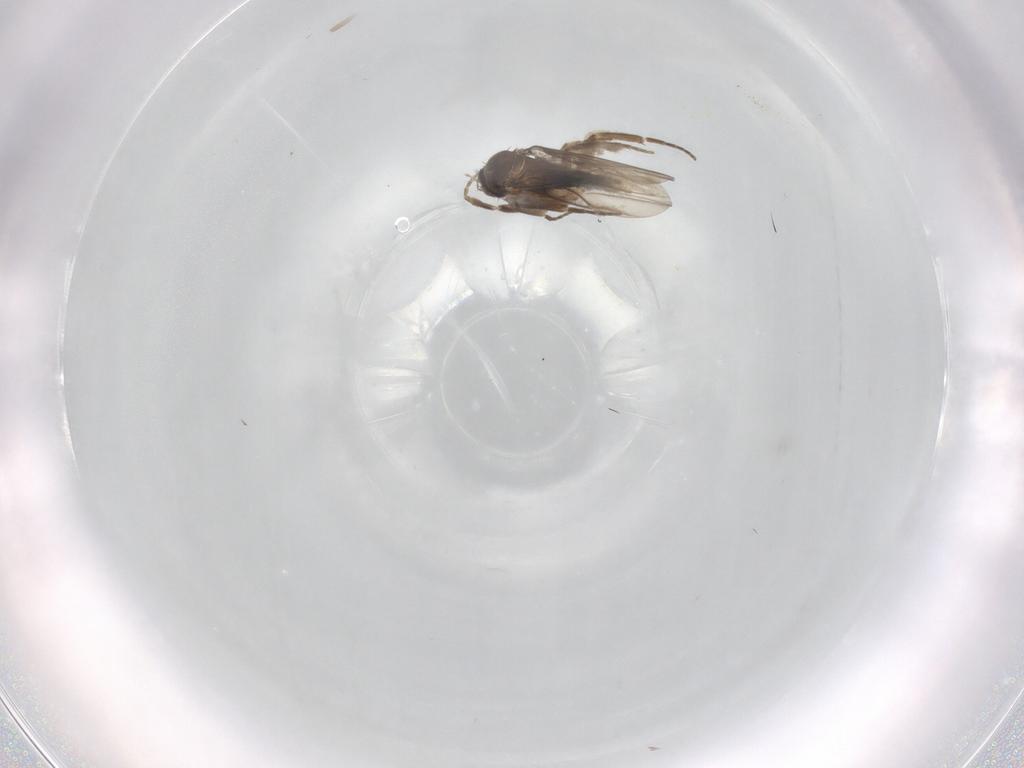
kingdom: Animalia
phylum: Arthropoda
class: Insecta
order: Diptera
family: Phoridae
